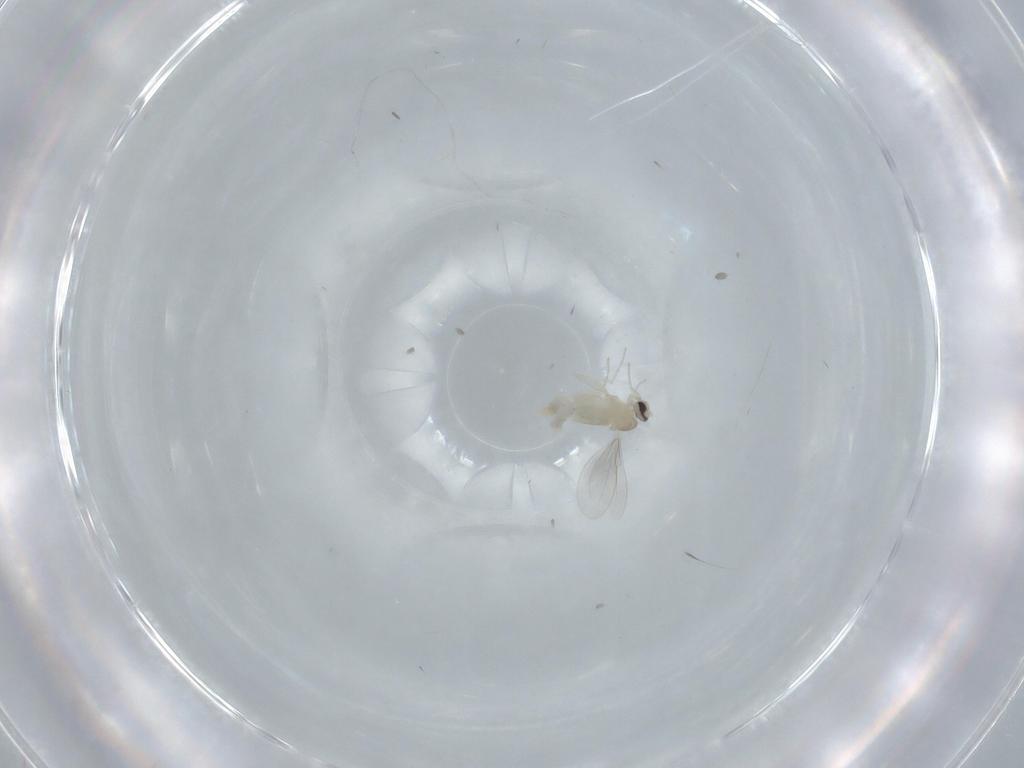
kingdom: Animalia
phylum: Arthropoda
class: Insecta
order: Diptera
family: Cecidomyiidae
